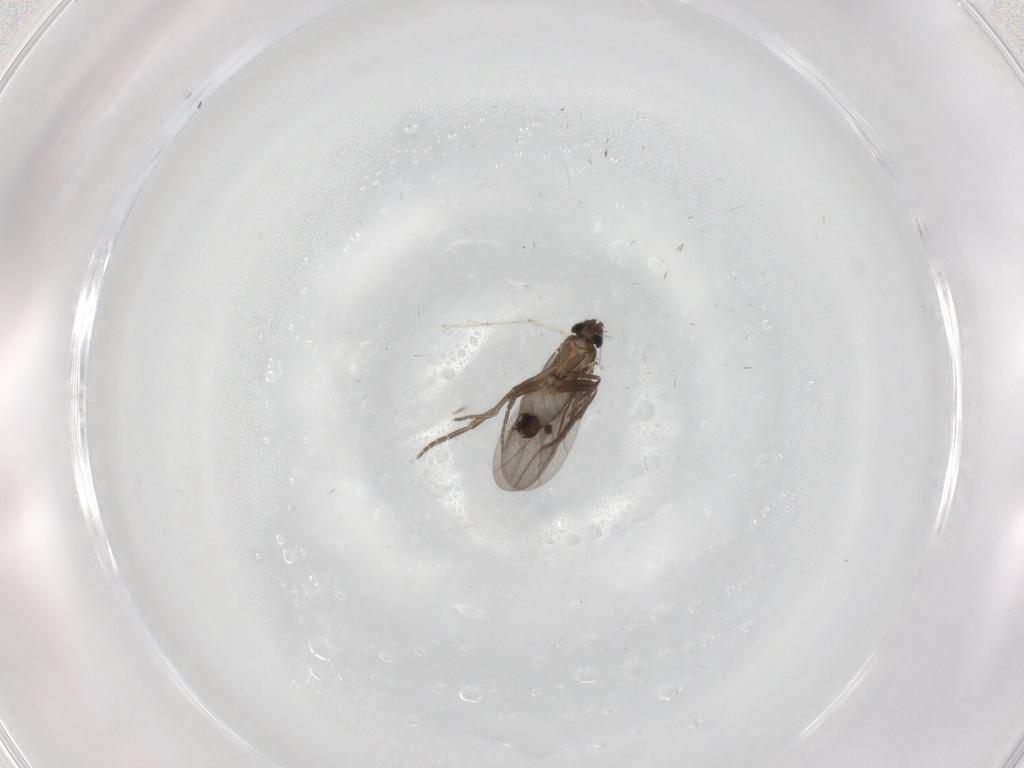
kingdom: Animalia
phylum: Arthropoda
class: Insecta
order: Diptera
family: Phoridae
